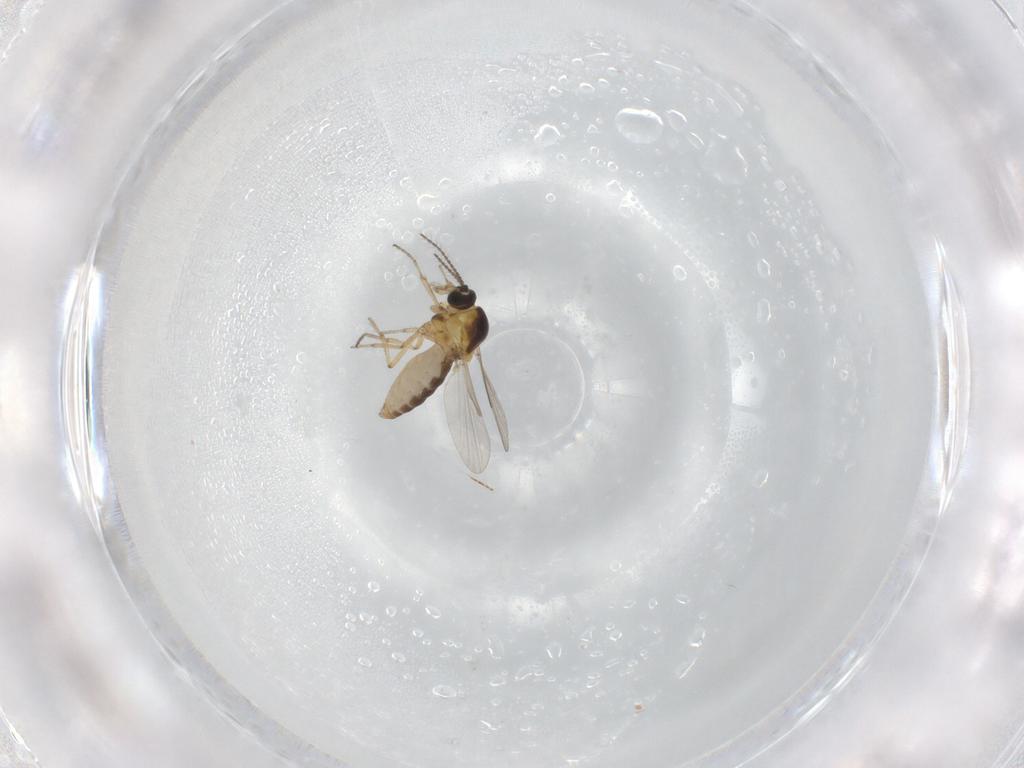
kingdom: Animalia
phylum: Arthropoda
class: Insecta
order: Diptera
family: Ceratopogonidae
